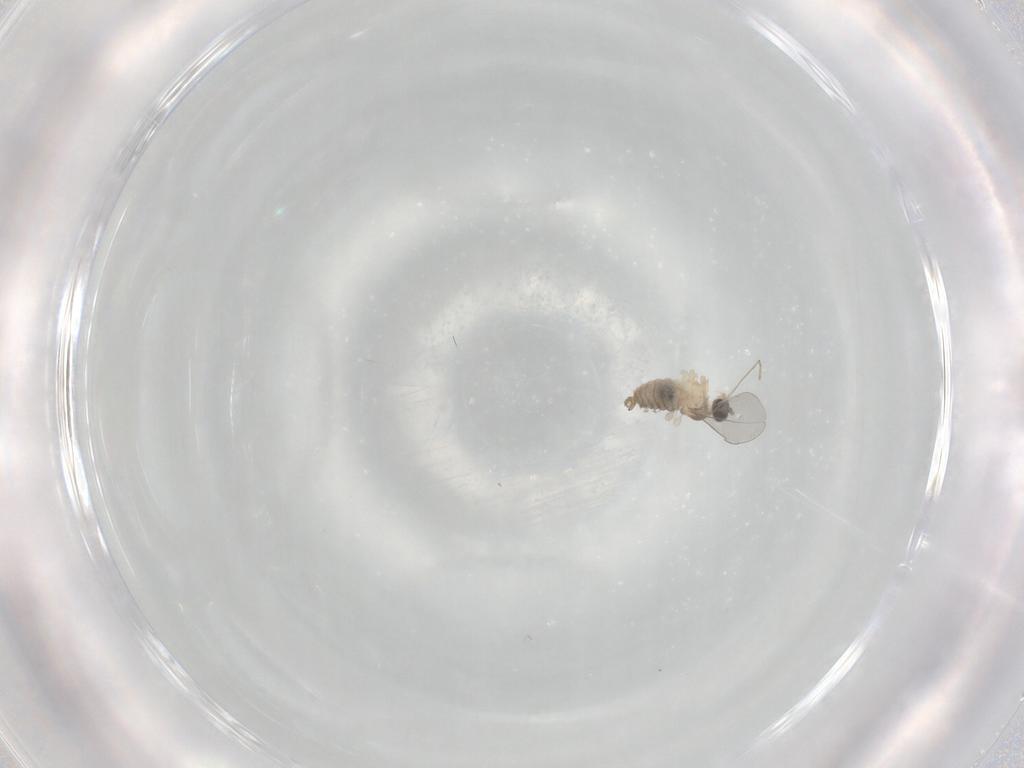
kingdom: Animalia
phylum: Arthropoda
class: Insecta
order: Diptera
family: Cecidomyiidae
